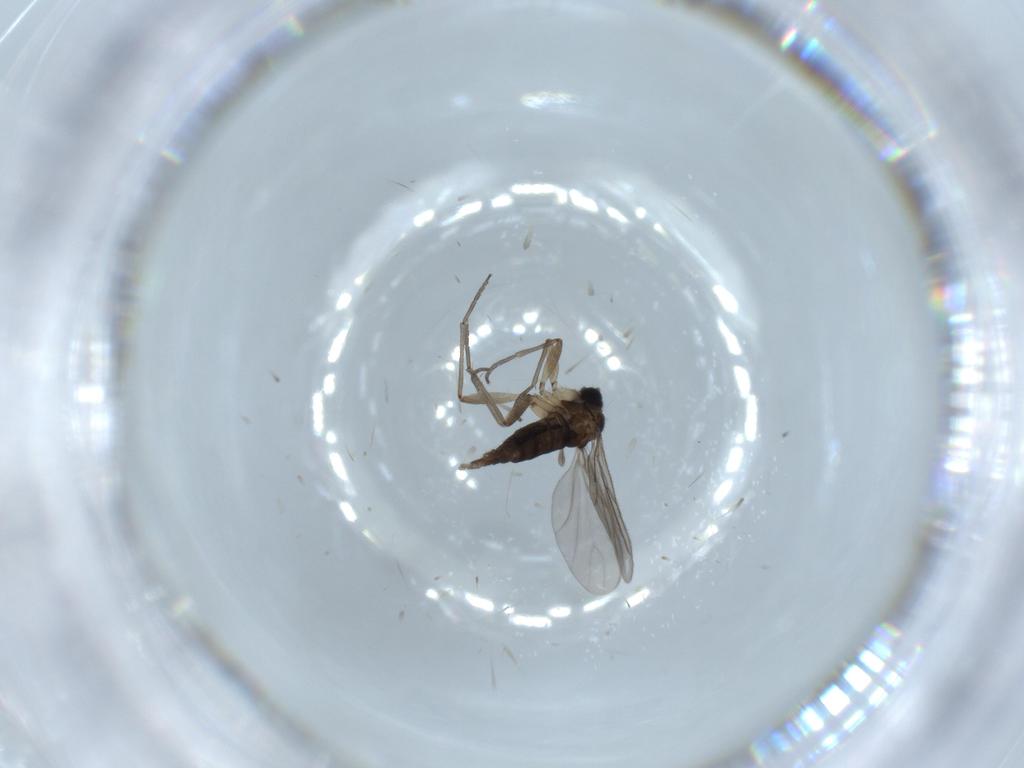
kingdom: Animalia
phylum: Arthropoda
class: Insecta
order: Diptera
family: Sciaridae
